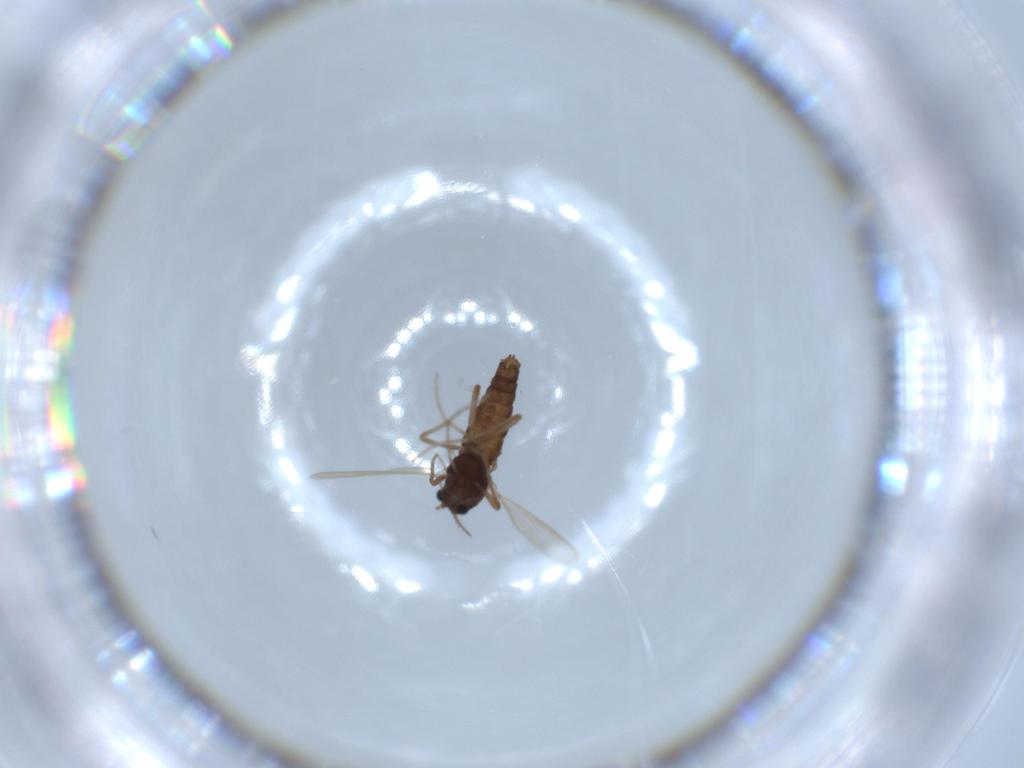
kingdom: Animalia
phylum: Arthropoda
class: Insecta
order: Diptera
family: Chironomidae
